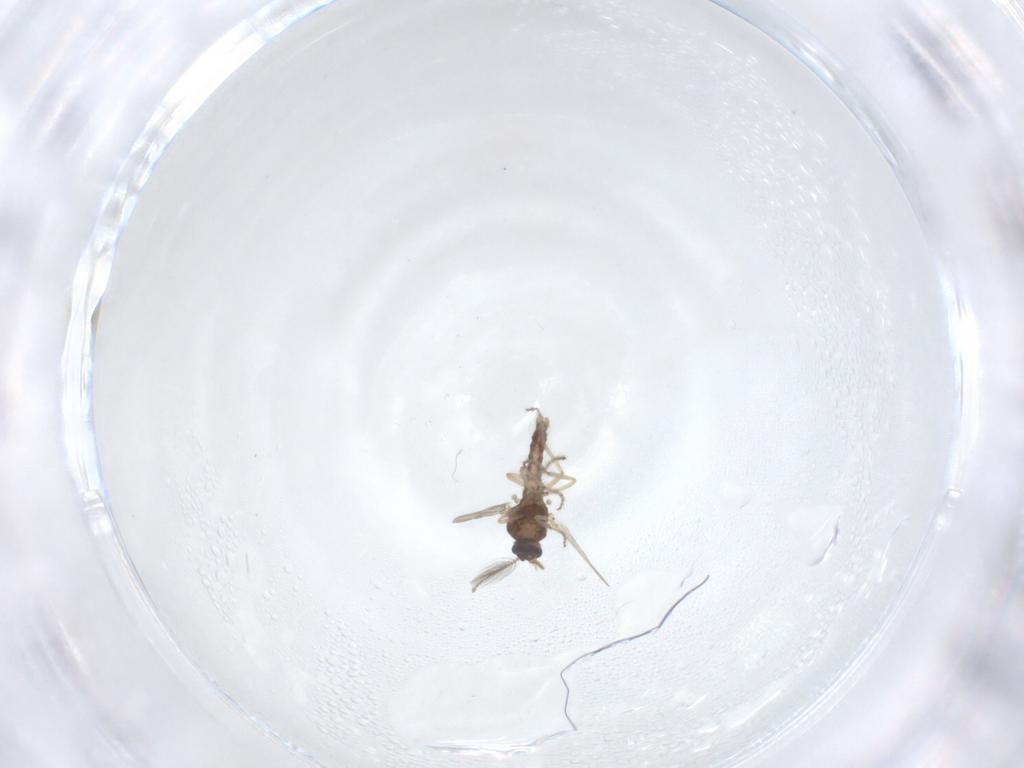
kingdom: Animalia
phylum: Arthropoda
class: Insecta
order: Diptera
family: Ceratopogonidae
